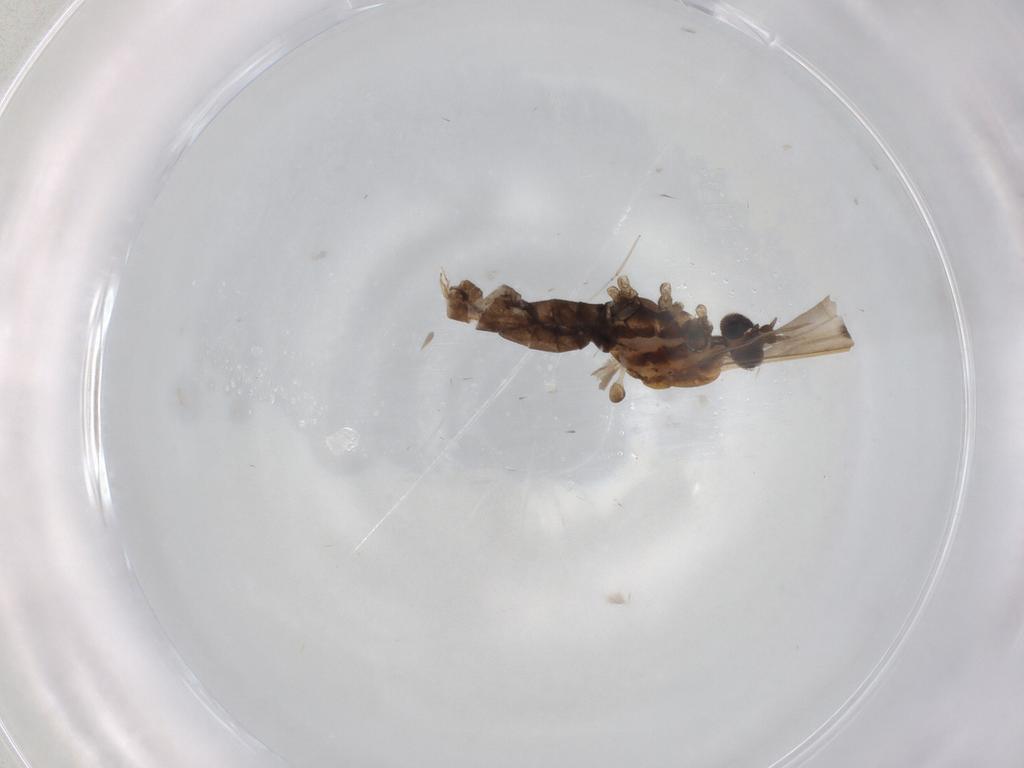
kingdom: Animalia
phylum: Arthropoda
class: Insecta
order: Diptera
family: Limoniidae
